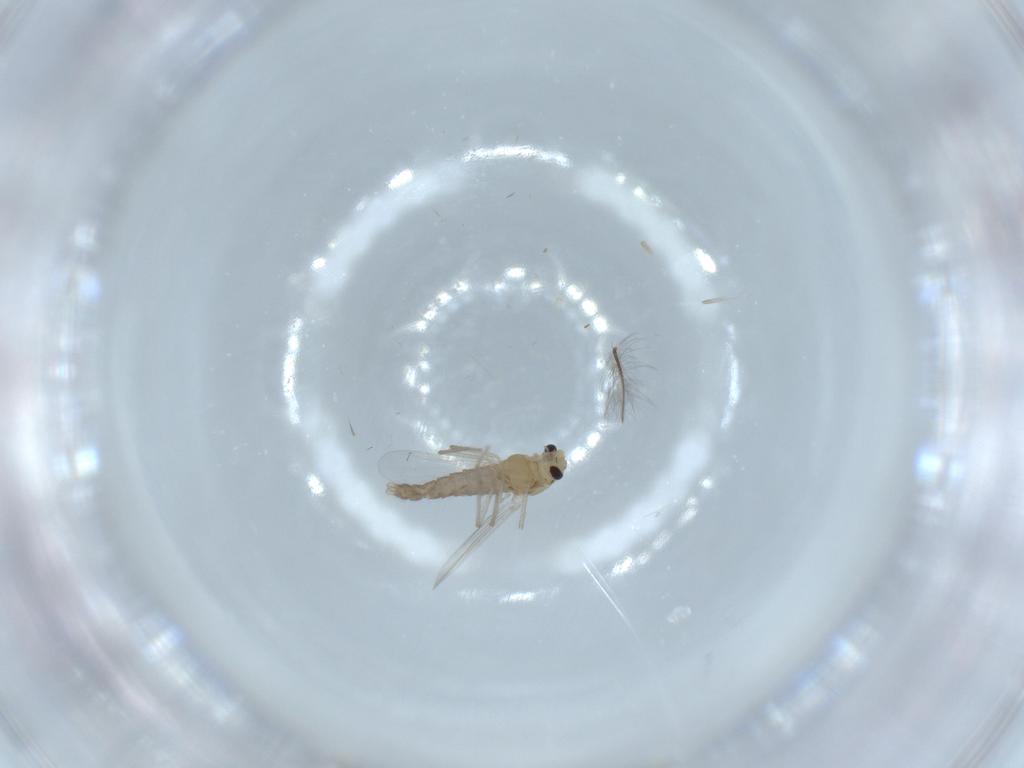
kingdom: Animalia
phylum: Arthropoda
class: Insecta
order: Diptera
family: Chironomidae
